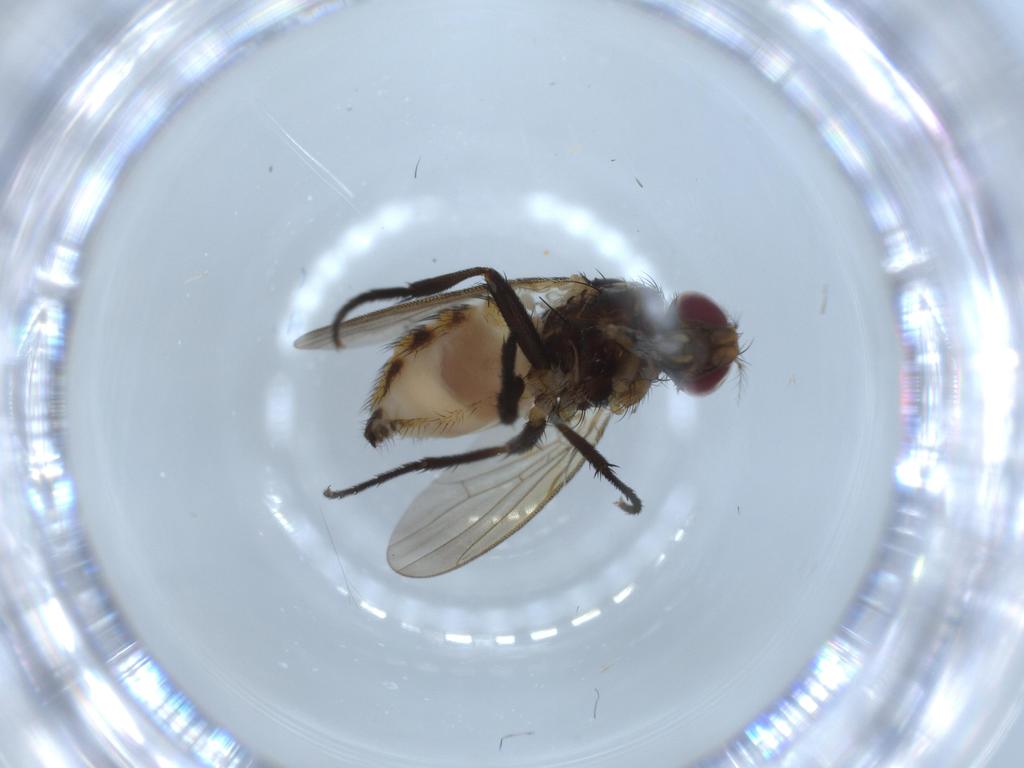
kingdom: Animalia
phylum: Arthropoda
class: Insecta
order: Diptera
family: Anthomyiidae
